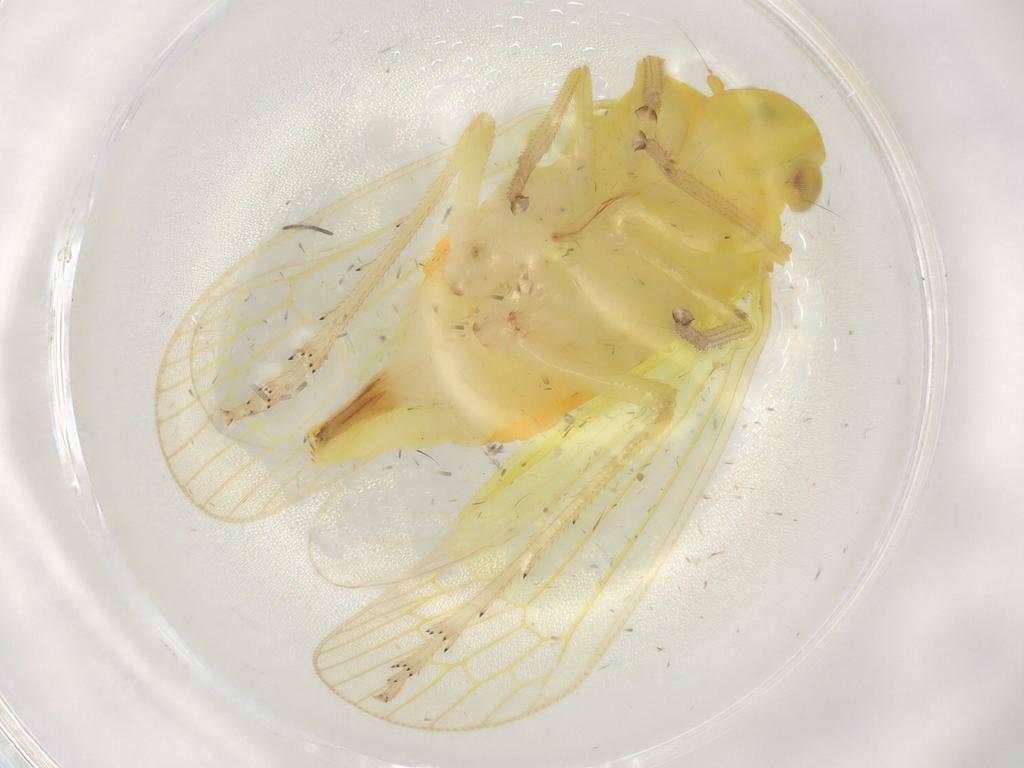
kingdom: Animalia
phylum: Arthropoda
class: Insecta
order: Hemiptera
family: Tropiduchidae
